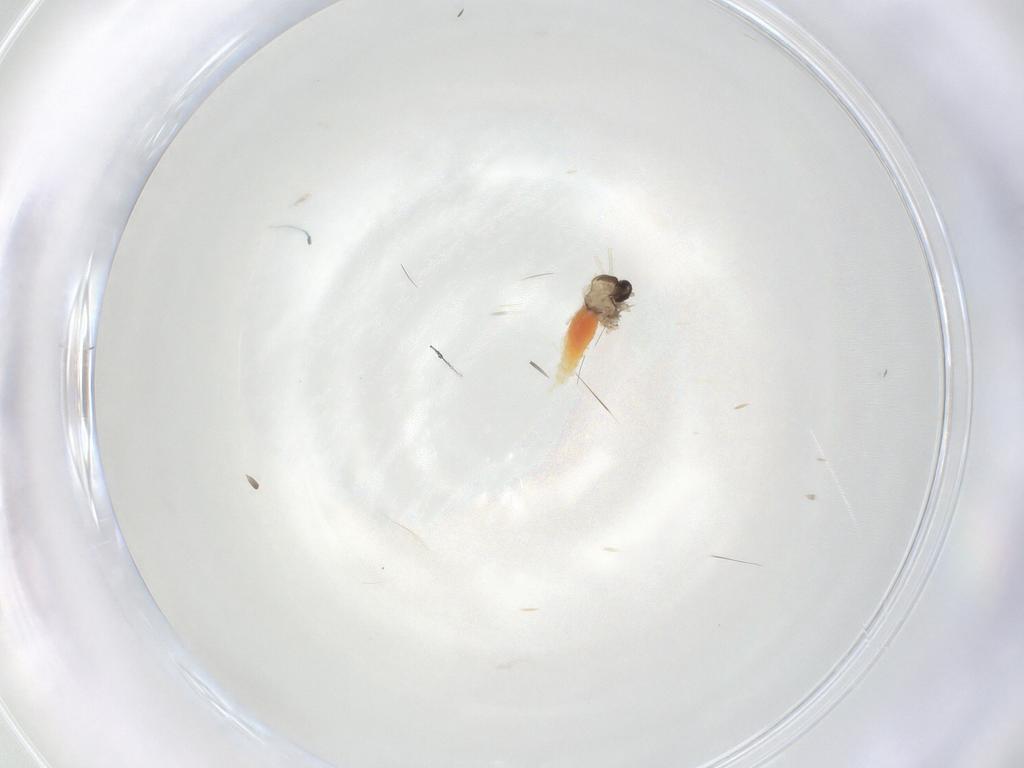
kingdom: Animalia
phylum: Arthropoda
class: Insecta
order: Diptera
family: Cecidomyiidae
